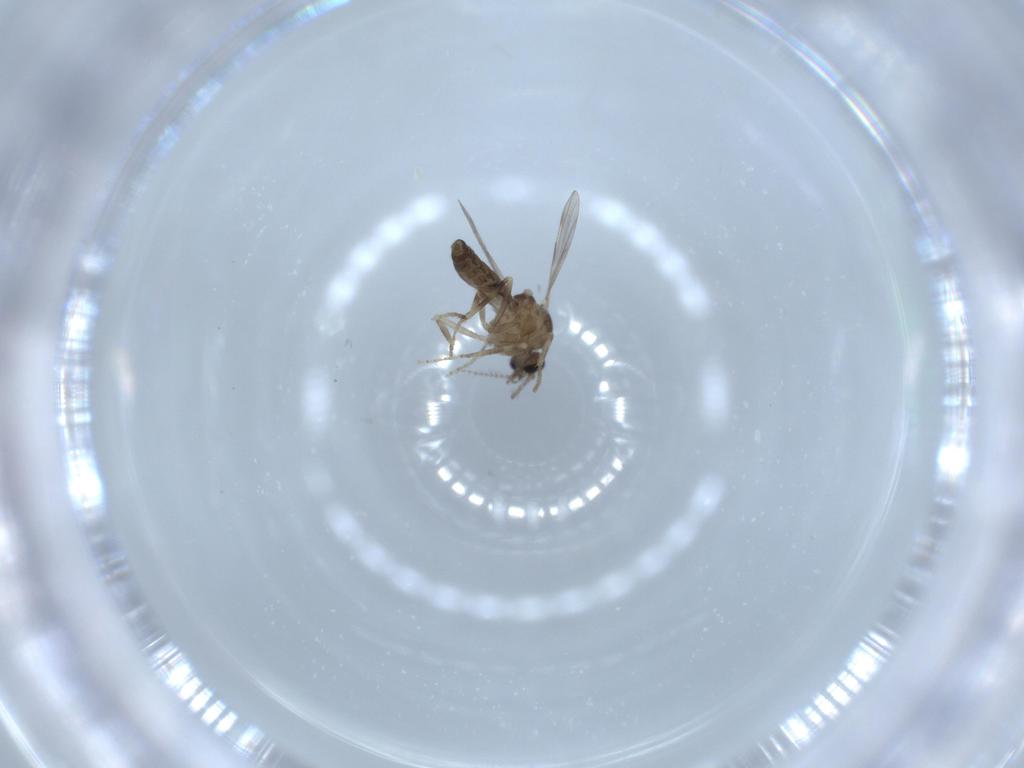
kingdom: Animalia
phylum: Arthropoda
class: Insecta
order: Diptera
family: Ceratopogonidae
